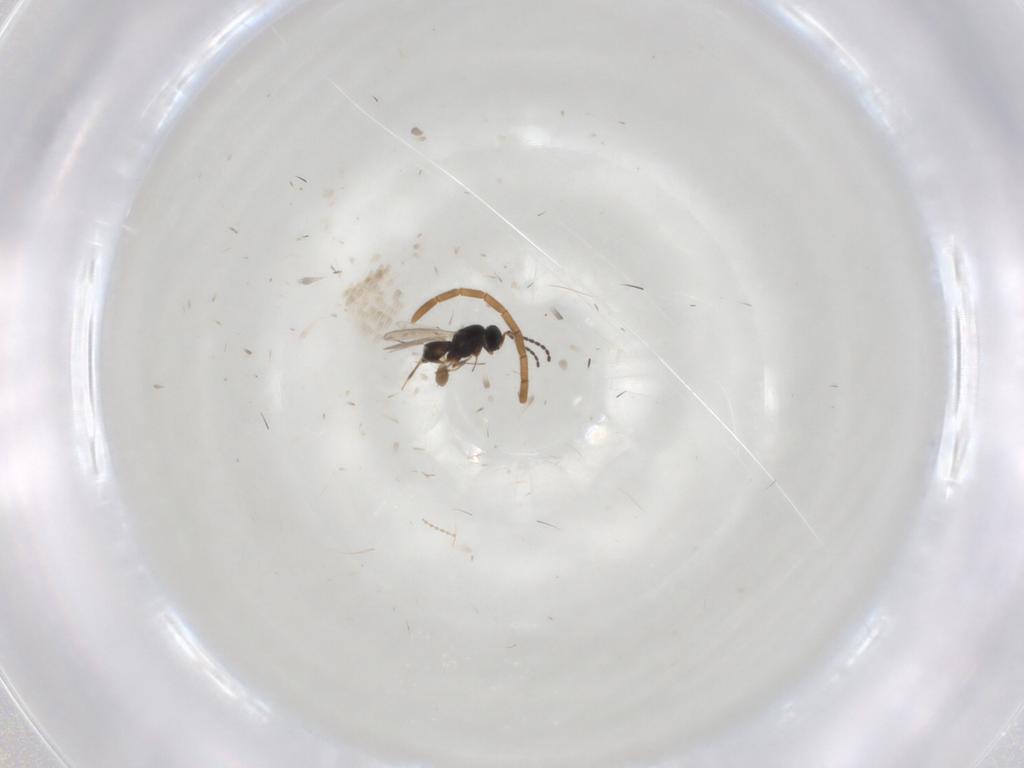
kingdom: Animalia
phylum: Arthropoda
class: Insecta
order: Hymenoptera
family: Scelionidae
